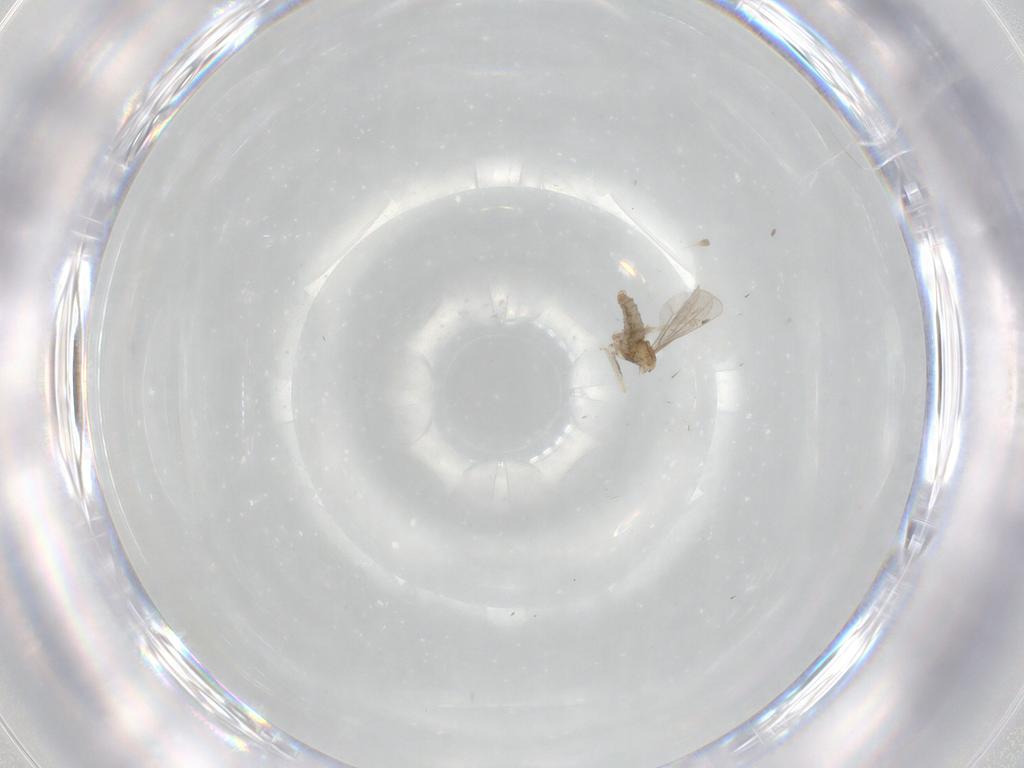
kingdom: Animalia
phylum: Arthropoda
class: Insecta
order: Diptera
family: Cecidomyiidae
